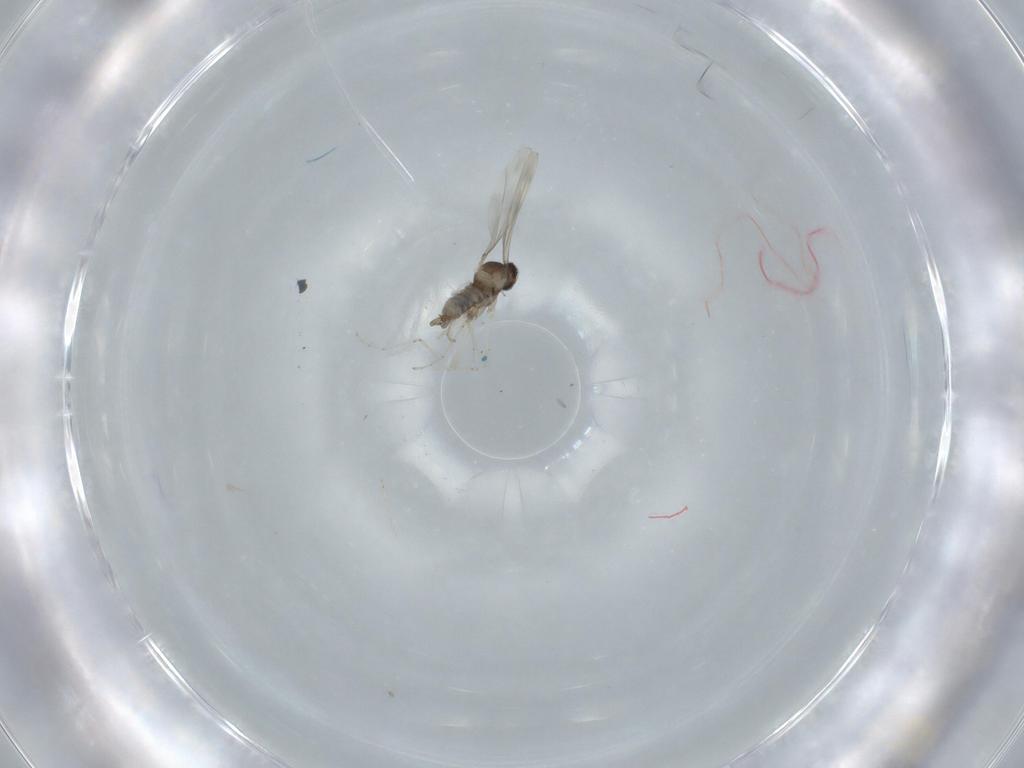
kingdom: Animalia
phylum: Arthropoda
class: Insecta
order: Diptera
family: Cecidomyiidae
